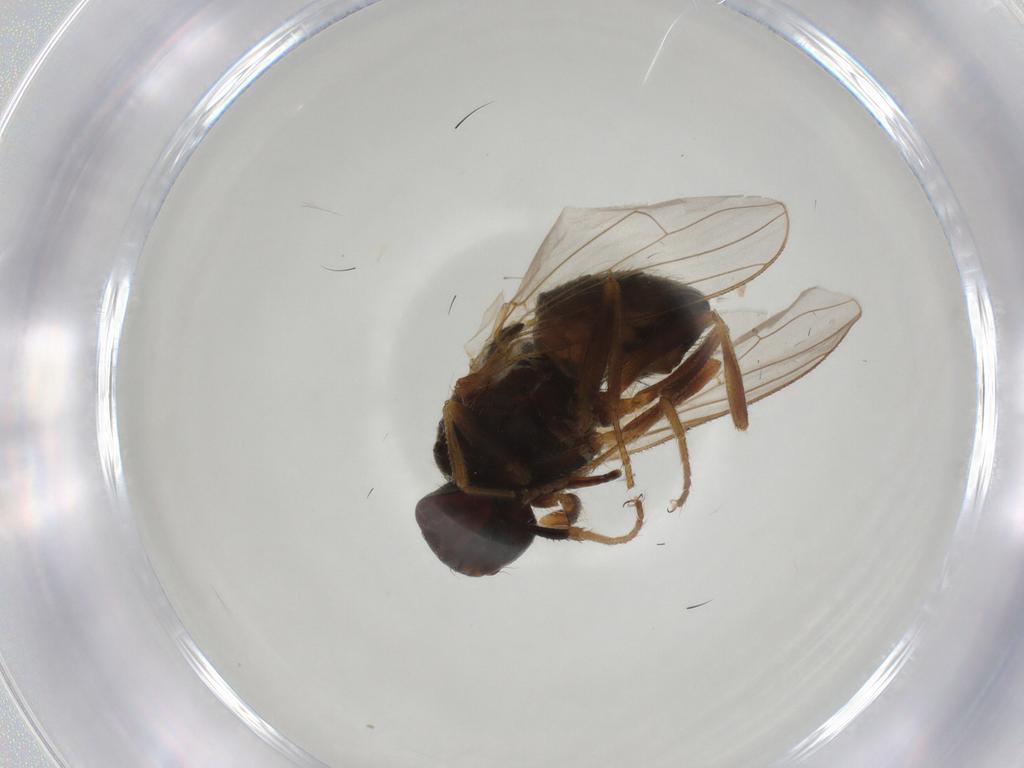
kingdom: Animalia
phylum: Arthropoda
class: Insecta
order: Diptera
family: Muscidae
